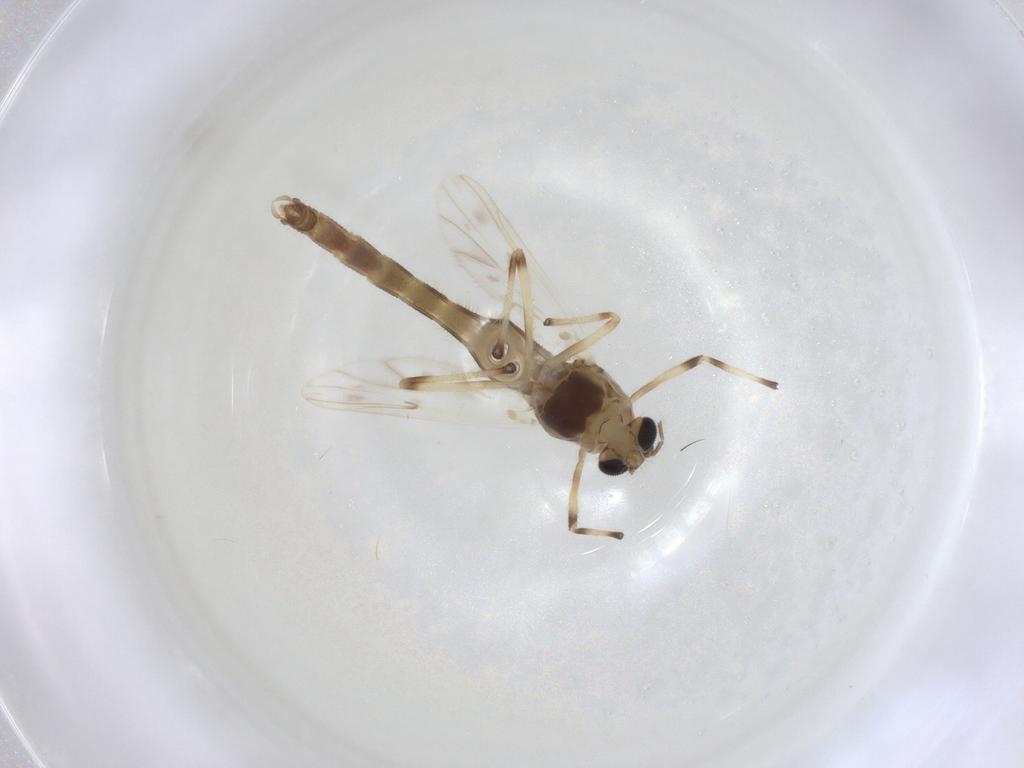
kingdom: Animalia
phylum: Arthropoda
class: Insecta
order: Diptera
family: Chironomidae
